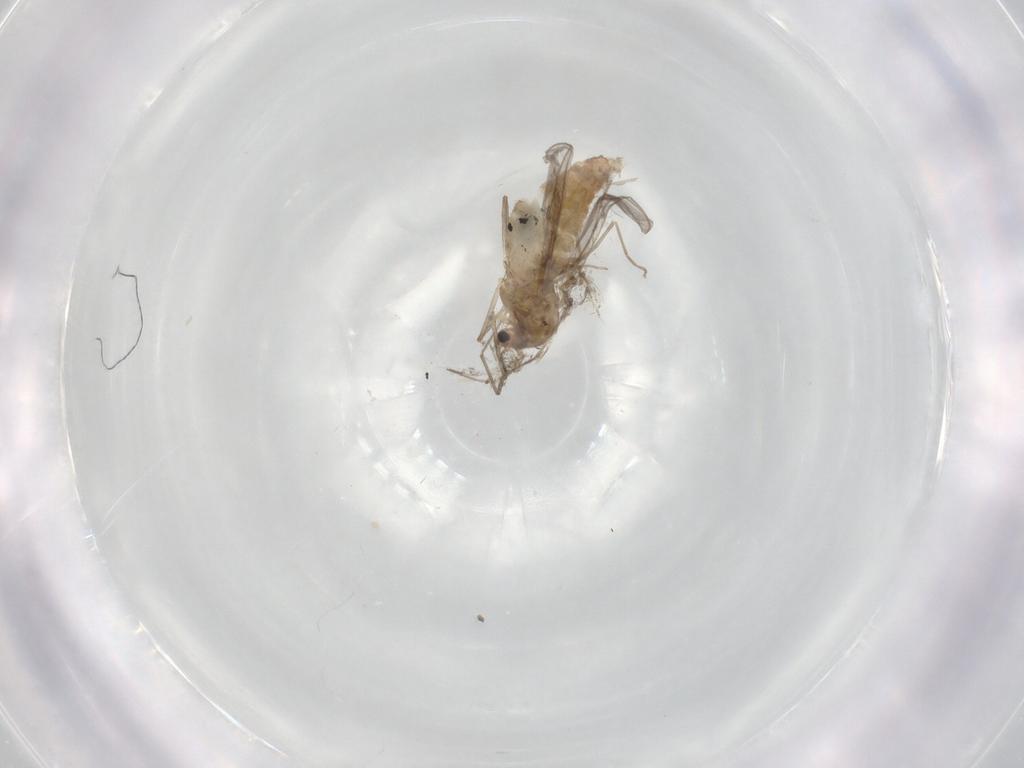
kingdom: Animalia
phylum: Arthropoda
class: Insecta
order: Diptera
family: Chironomidae
